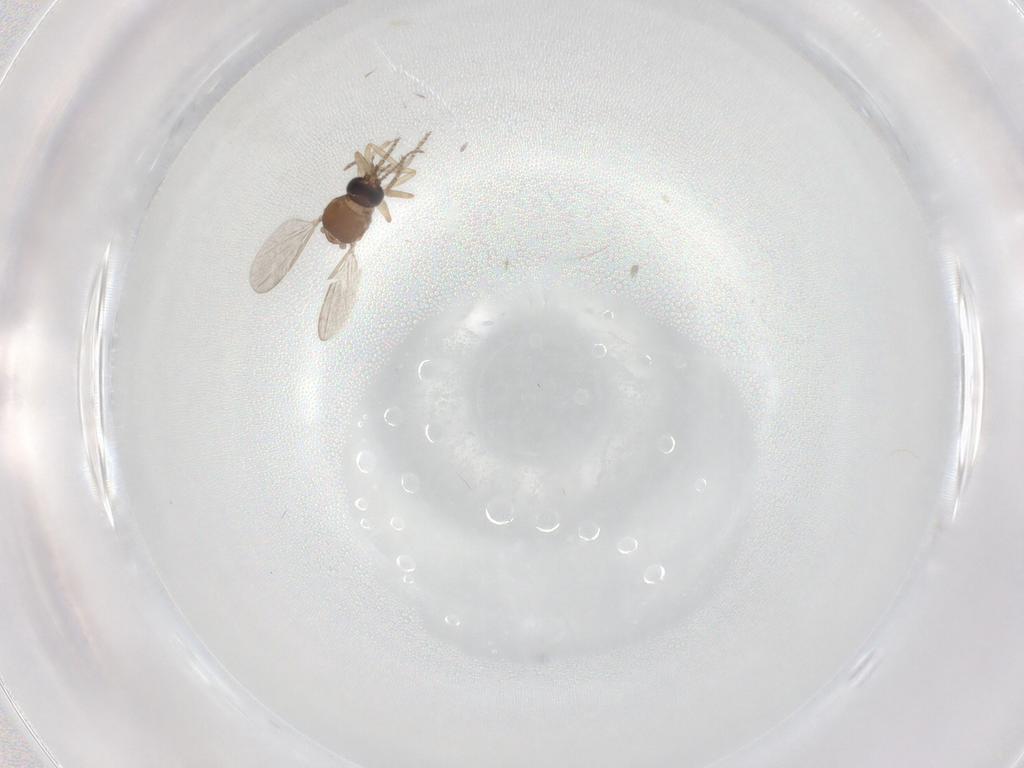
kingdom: Animalia
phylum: Arthropoda
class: Insecta
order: Diptera
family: Ceratopogonidae
